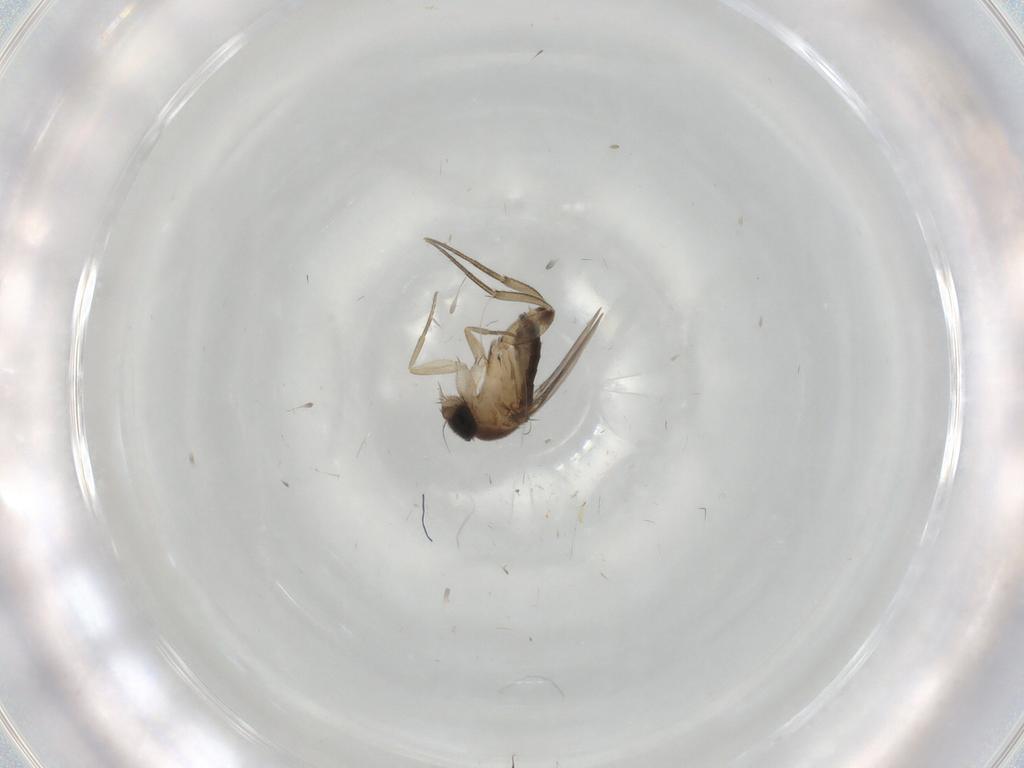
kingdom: Animalia
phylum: Arthropoda
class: Insecta
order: Diptera
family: Phoridae
